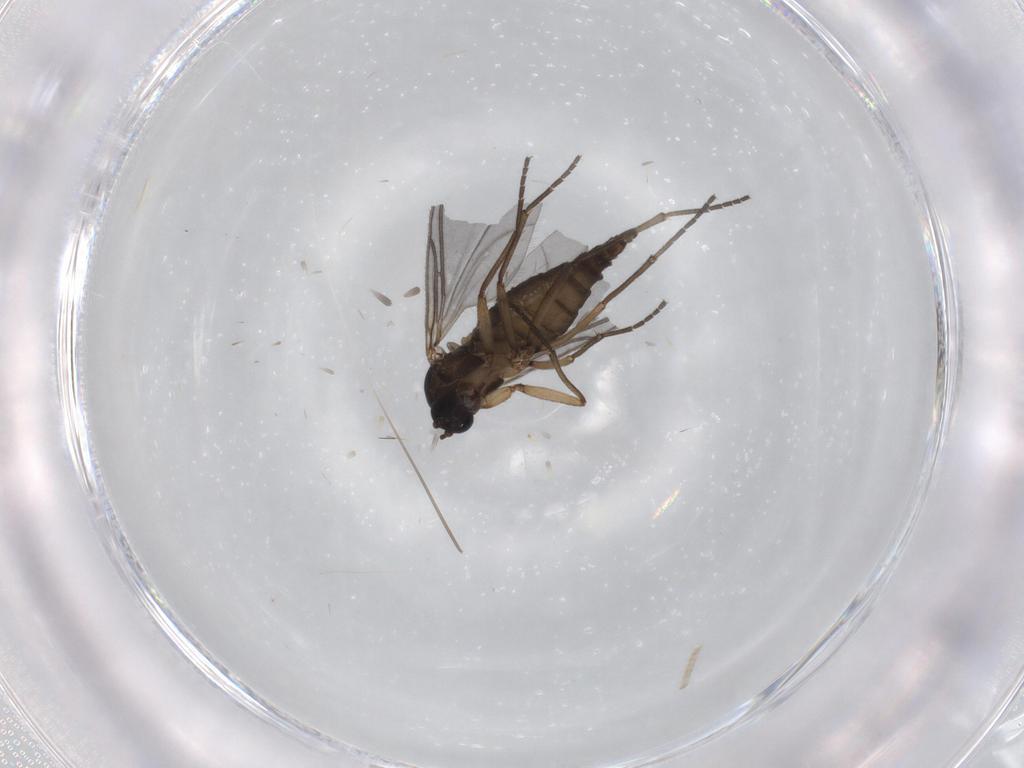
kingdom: Animalia
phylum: Arthropoda
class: Insecta
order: Diptera
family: Sciaridae
